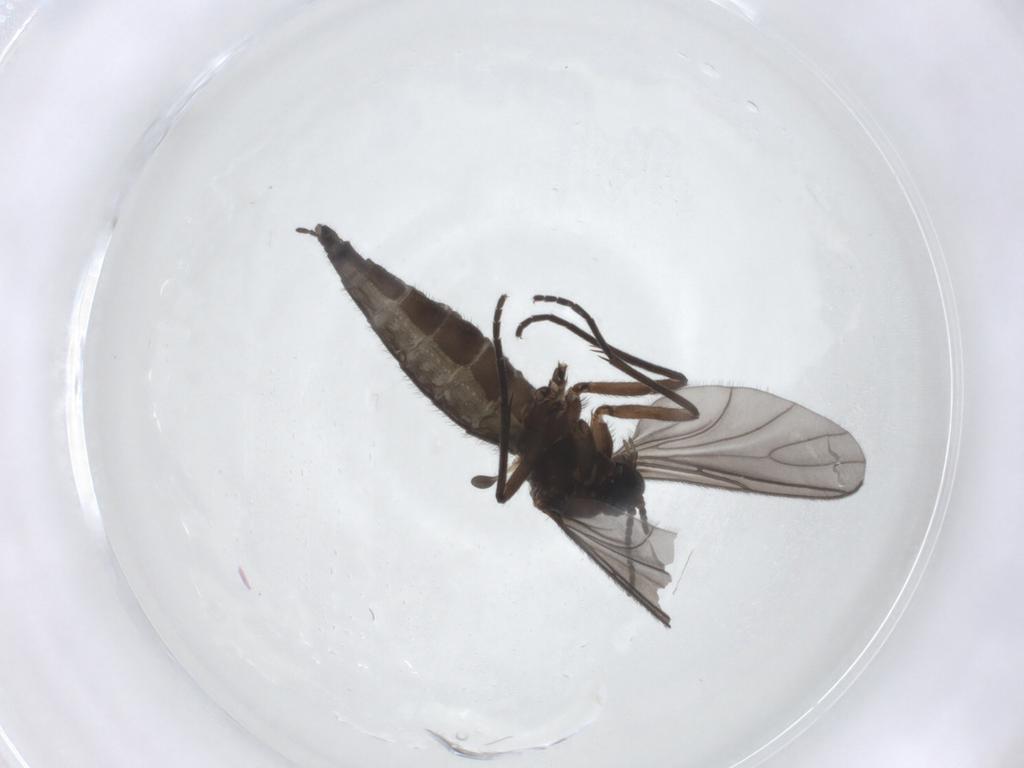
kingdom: Animalia
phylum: Arthropoda
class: Insecta
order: Diptera
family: Sciaridae
